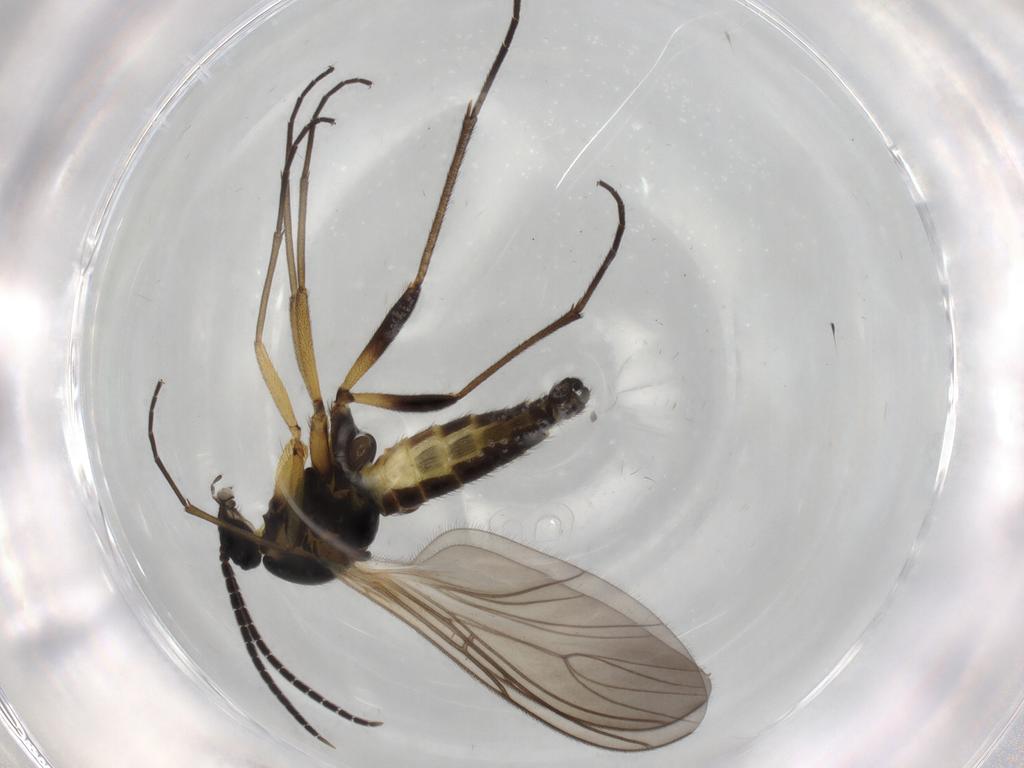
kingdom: Animalia
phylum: Arthropoda
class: Insecta
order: Diptera
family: Sciaridae
